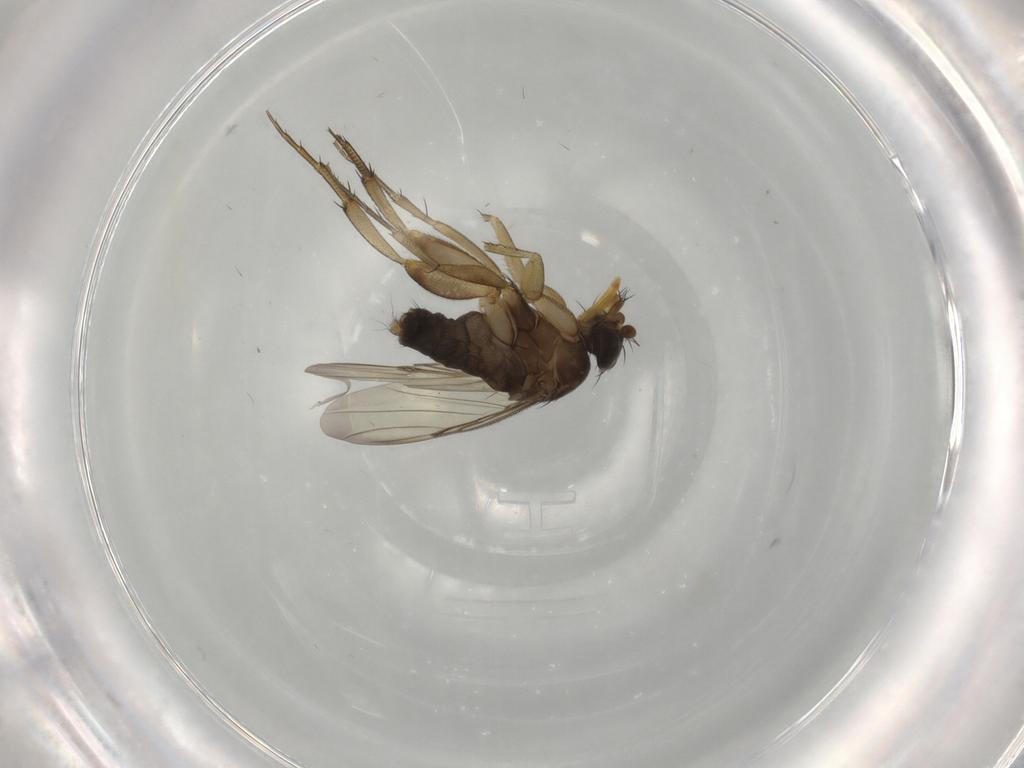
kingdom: Animalia
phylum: Arthropoda
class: Insecta
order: Diptera
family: Phoridae
